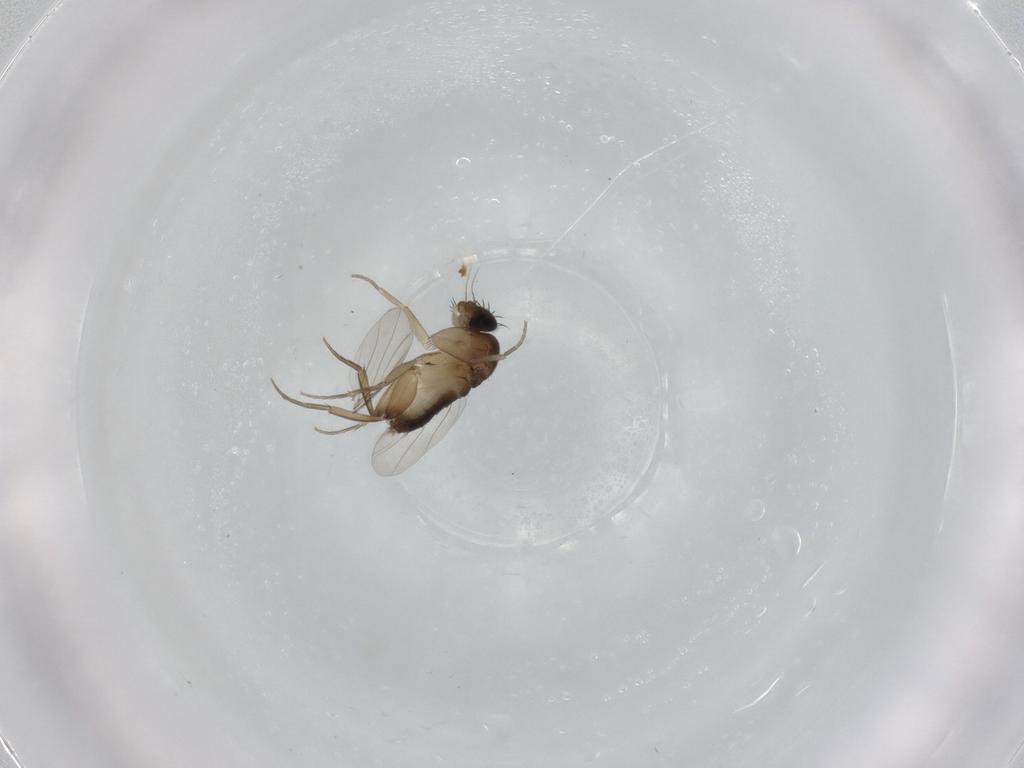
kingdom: Animalia
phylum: Arthropoda
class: Insecta
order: Diptera
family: Phoridae
